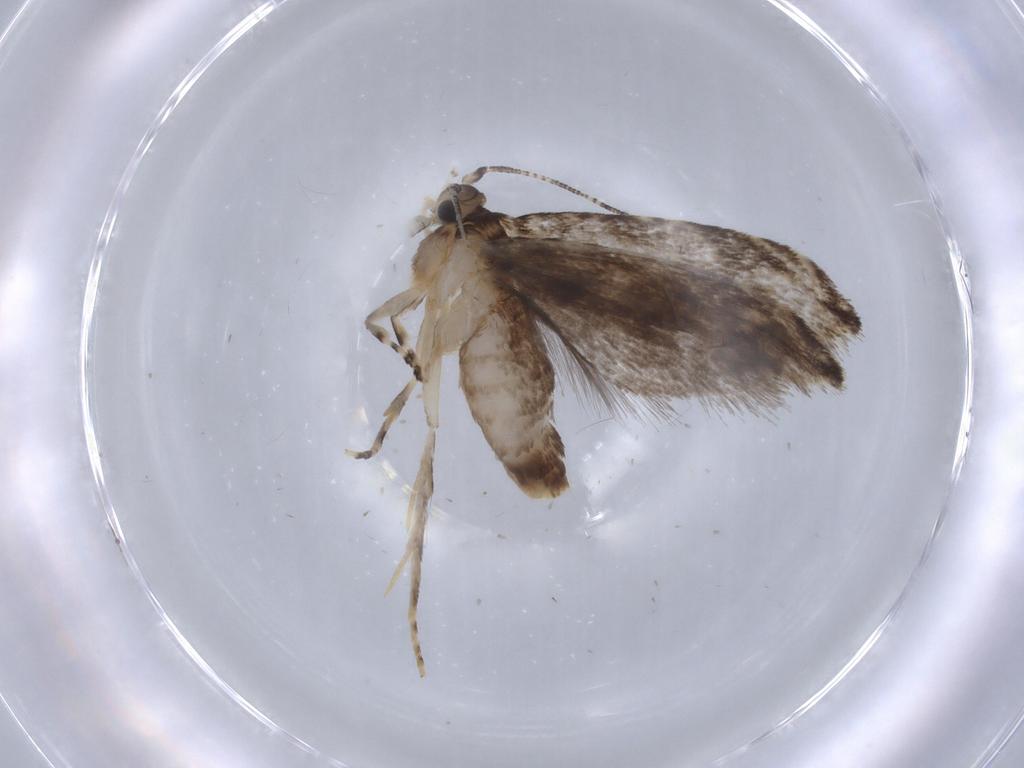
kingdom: Animalia
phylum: Arthropoda
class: Insecta
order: Lepidoptera
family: Tineidae
